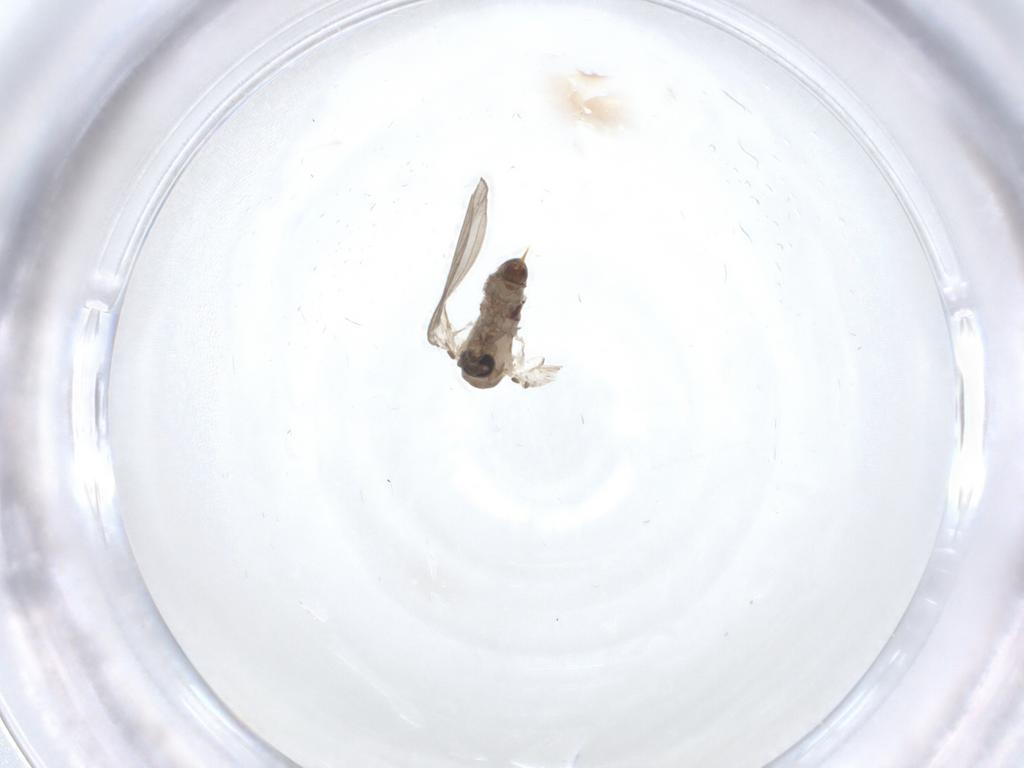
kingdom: Animalia
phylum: Arthropoda
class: Insecta
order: Diptera
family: Psychodidae
